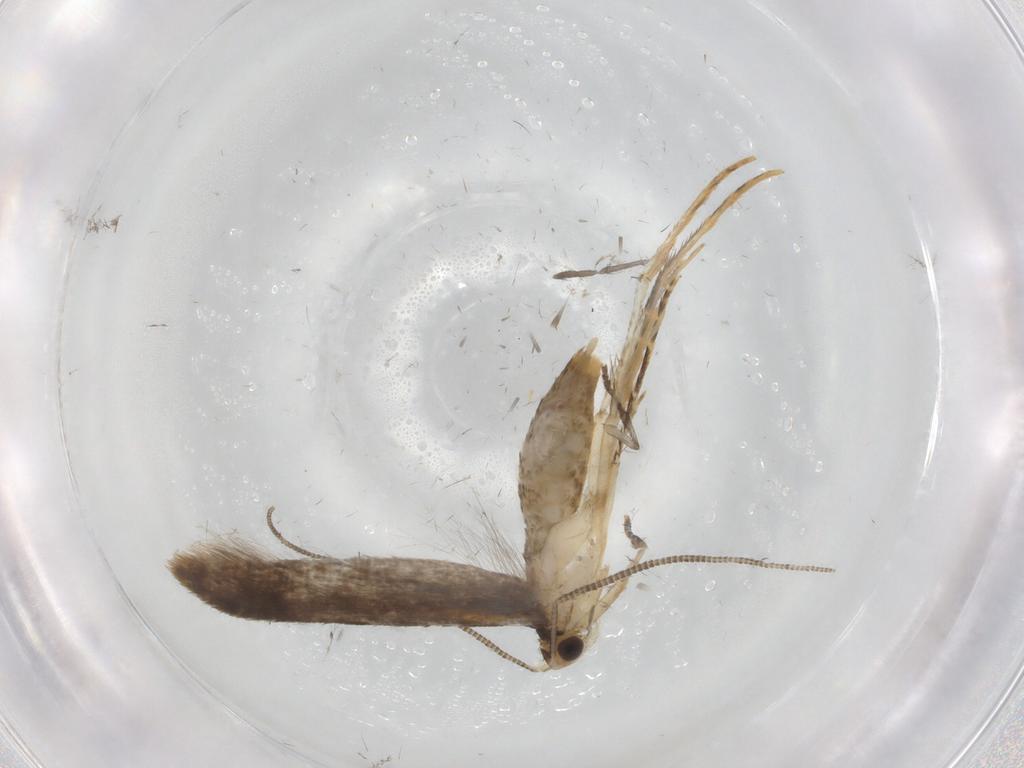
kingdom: Animalia
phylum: Arthropoda
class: Insecta
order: Lepidoptera
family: Tineidae
